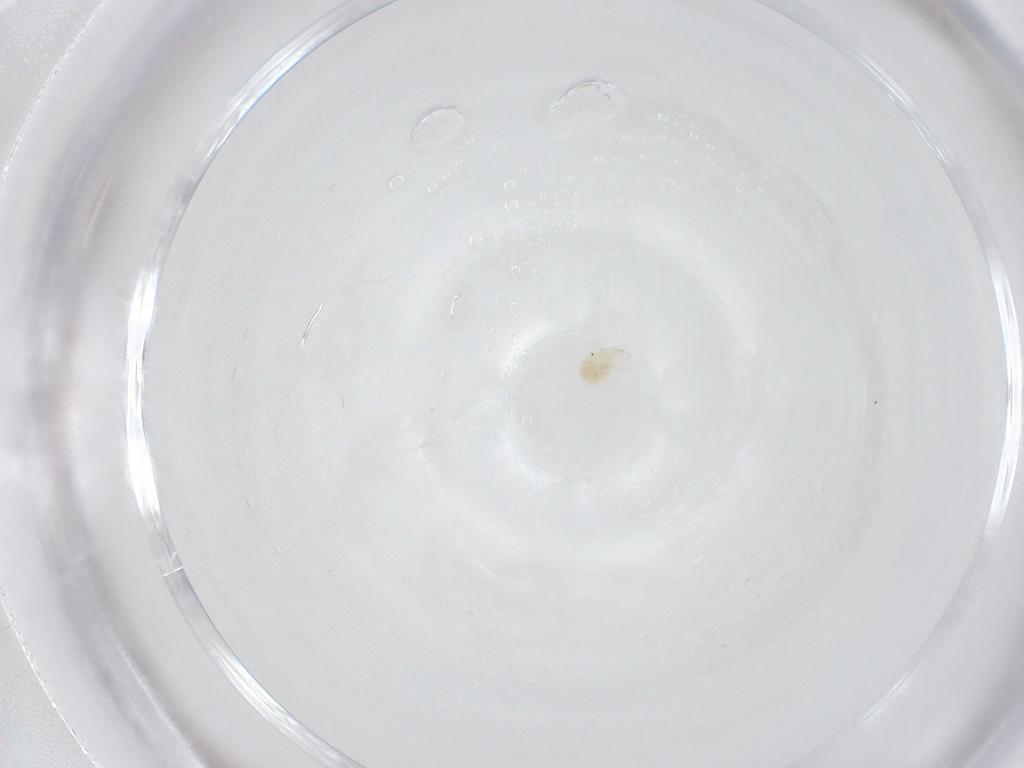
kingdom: Animalia
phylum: Arthropoda
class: Arachnida
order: Trombidiformes
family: Anystidae
